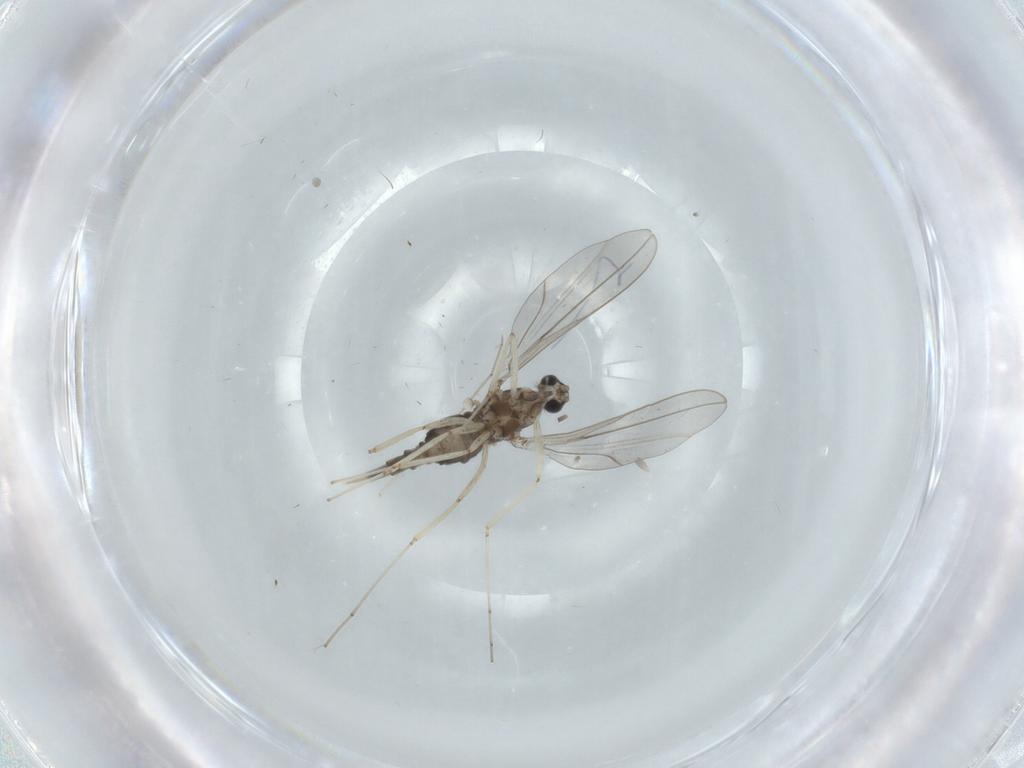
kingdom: Animalia
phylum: Arthropoda
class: Insecta
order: Diptera
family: Cecidomyiidae
